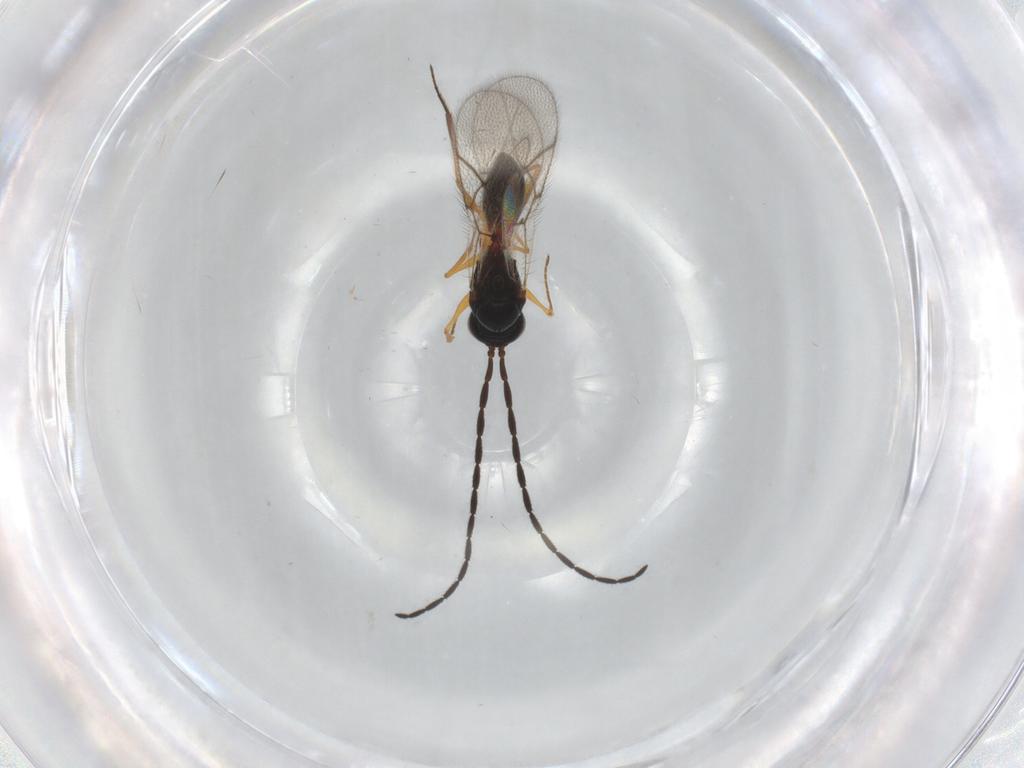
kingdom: Animalia
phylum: Arthropoda
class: Insecta
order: Hymenoptera
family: Figitidae
